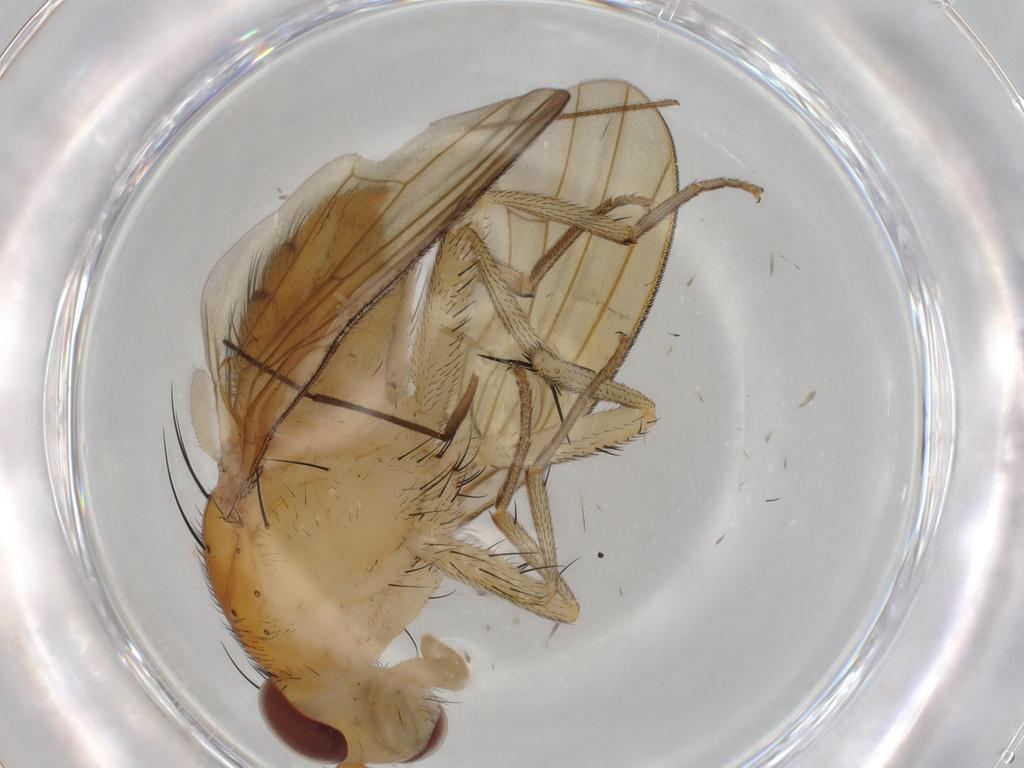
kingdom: Animalia
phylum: Arthropoda
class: Insecta
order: Diptera
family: Sciaridae
